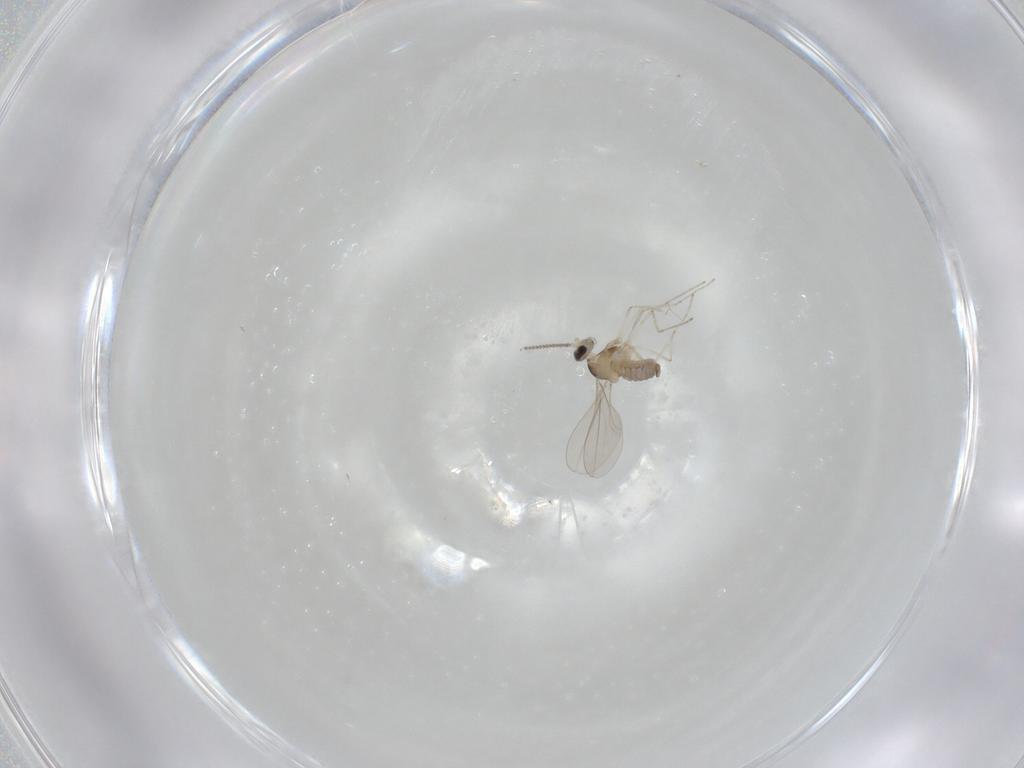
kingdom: Animalia
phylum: Arthropoda
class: Insecta
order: Diptera
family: Cecidomyiidae
